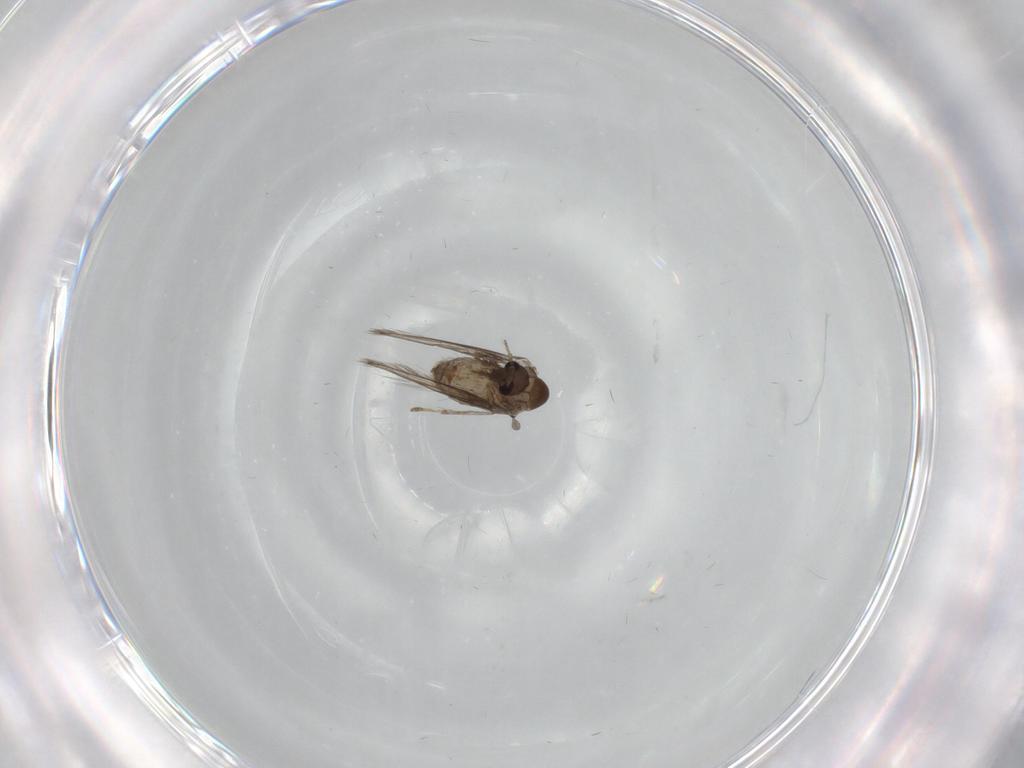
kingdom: Animalia
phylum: Arthropoda
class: Insecta
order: Diptera
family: Psychodidae
